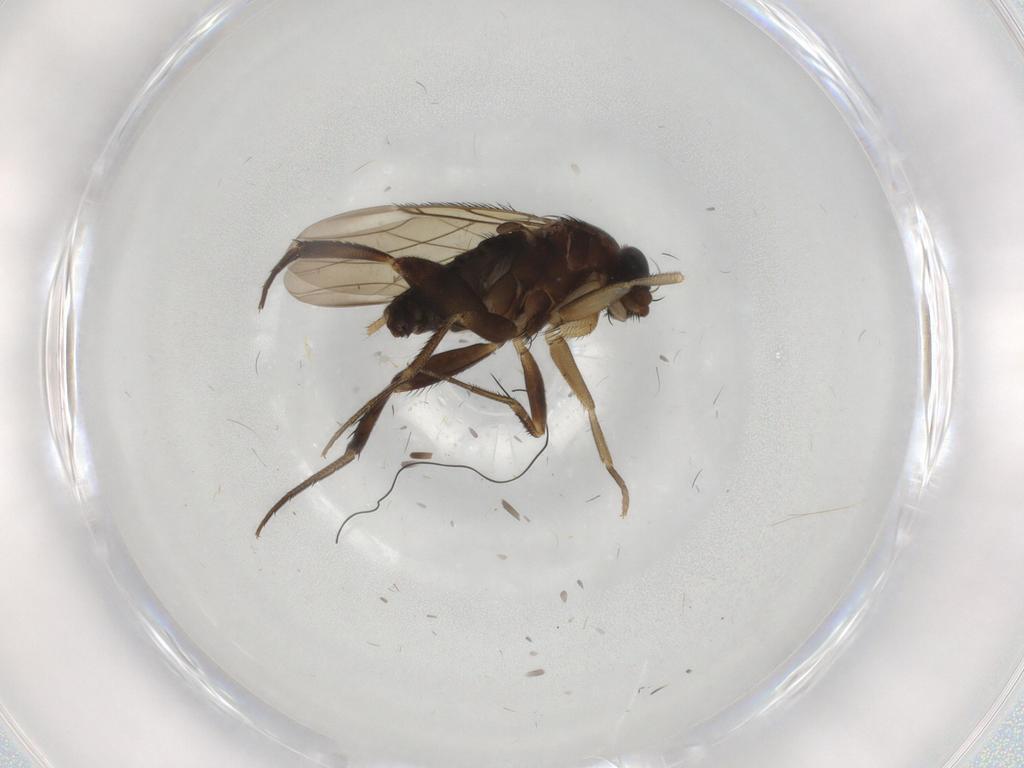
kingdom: Animalia
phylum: Arthropoda
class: Insecta
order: Diptera
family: Phoridae
